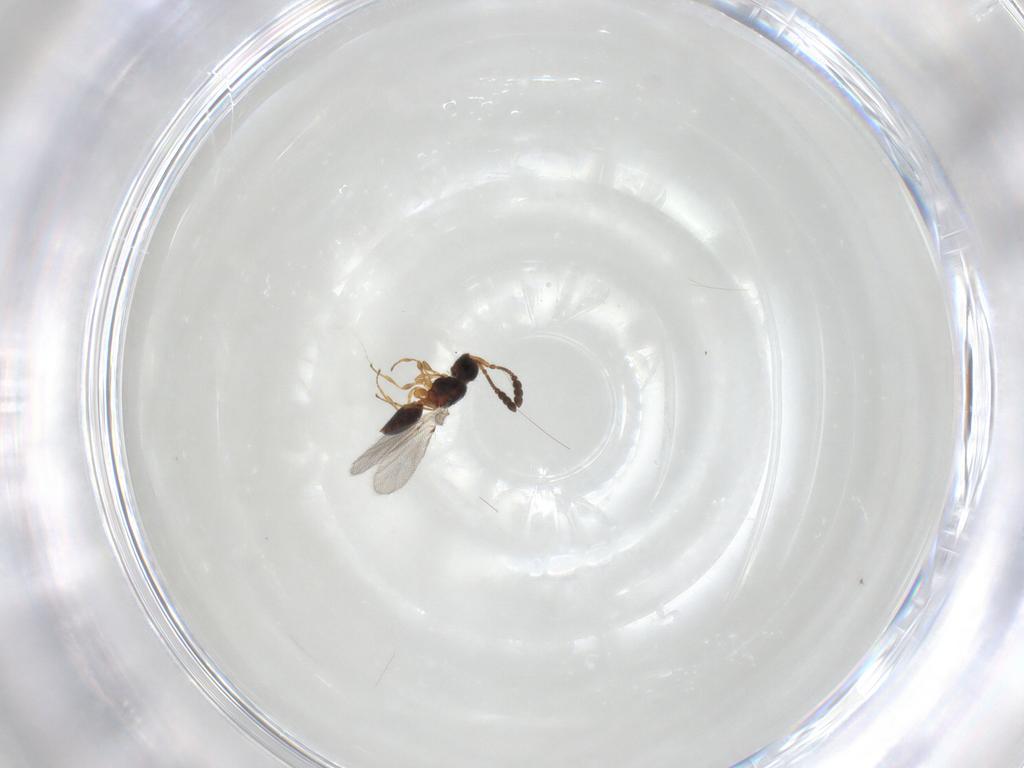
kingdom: Animalia
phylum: Arthropoda
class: Insecta
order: Hymenoptera
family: Diapriidae
